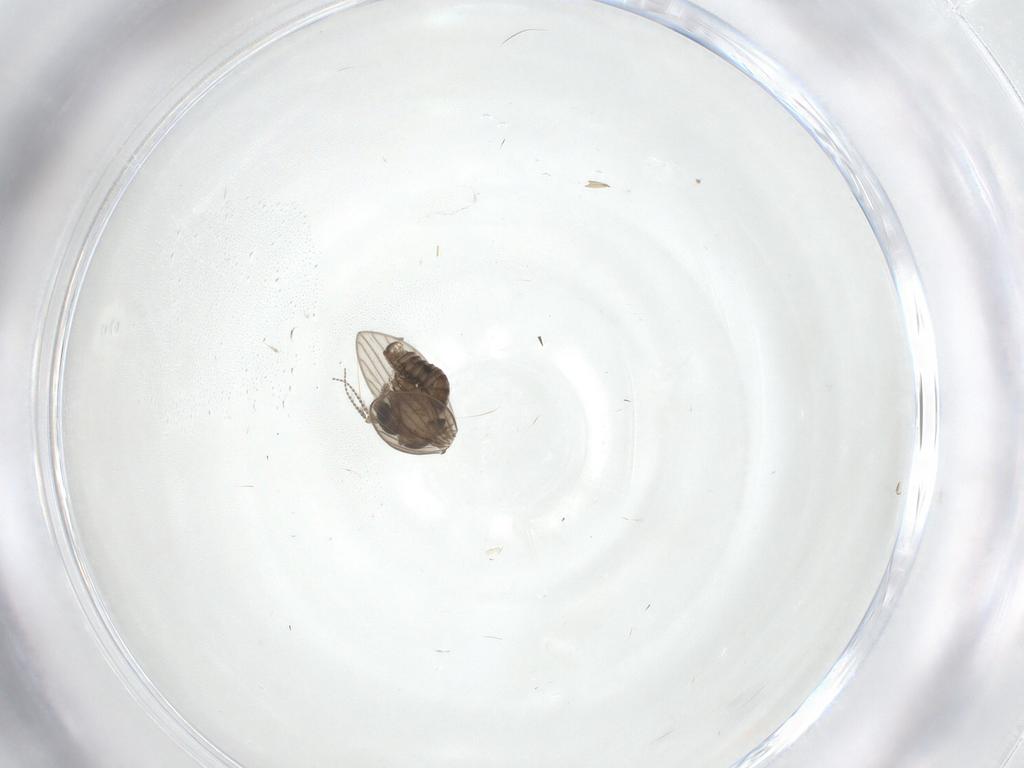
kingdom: Animalia
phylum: Arthropoda
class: Insecta
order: Diptera
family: Psychodidae
